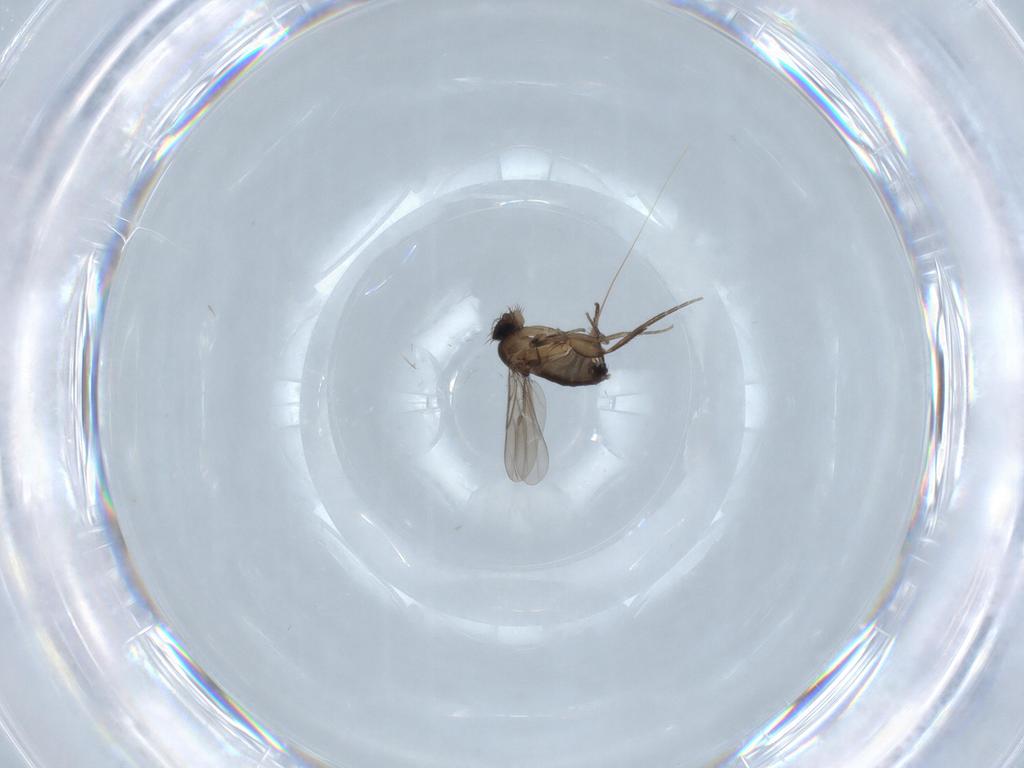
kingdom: Animalia
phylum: Arthropoda
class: Insecta
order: Diptera
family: Phoridae
